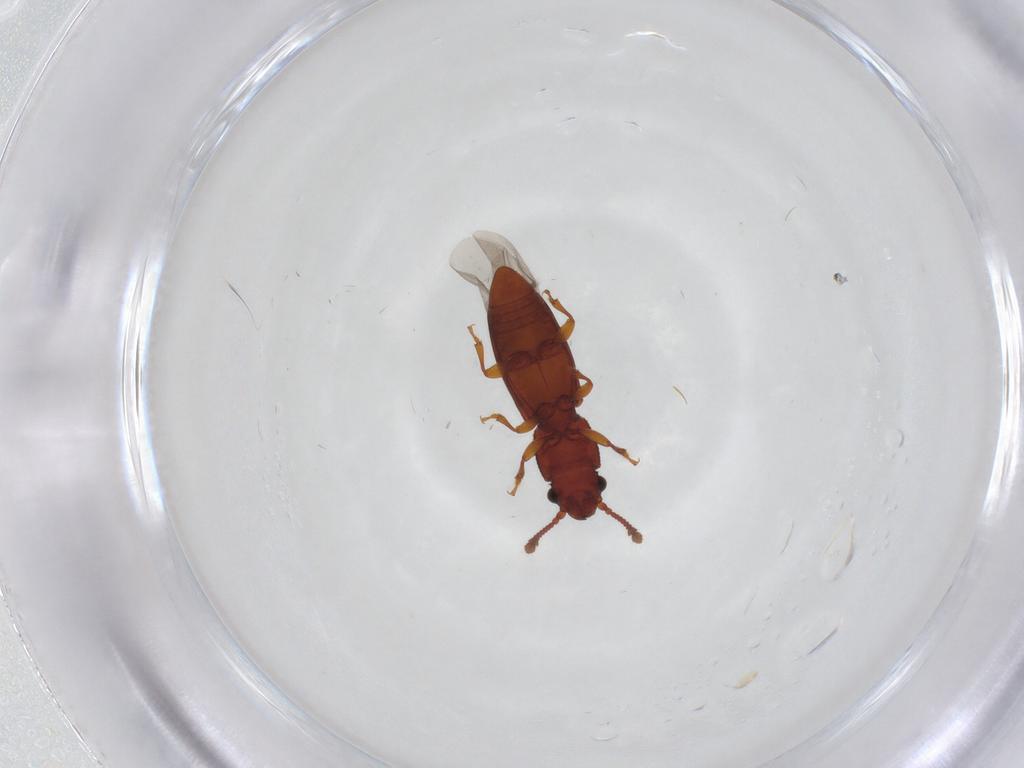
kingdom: Animalia
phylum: Arthropoda
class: Insecta
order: Coleoptera
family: Monotomidae
